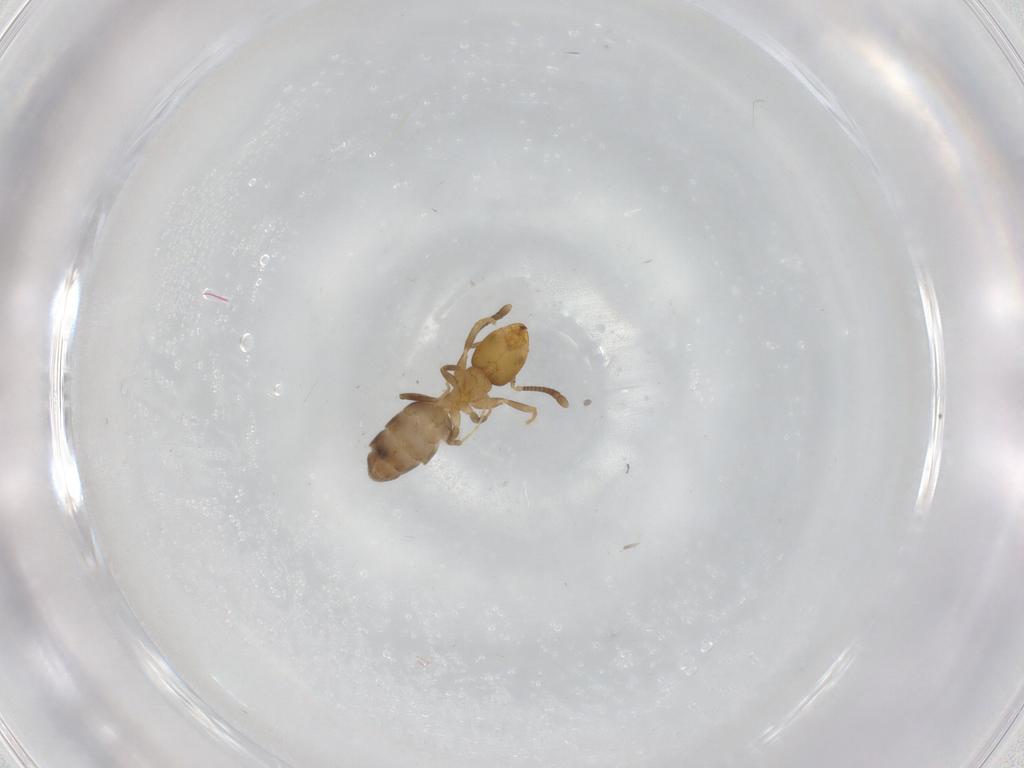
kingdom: Animalia
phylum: Arthropoda
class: Insecta
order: Hymenoptera
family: Formicidae
